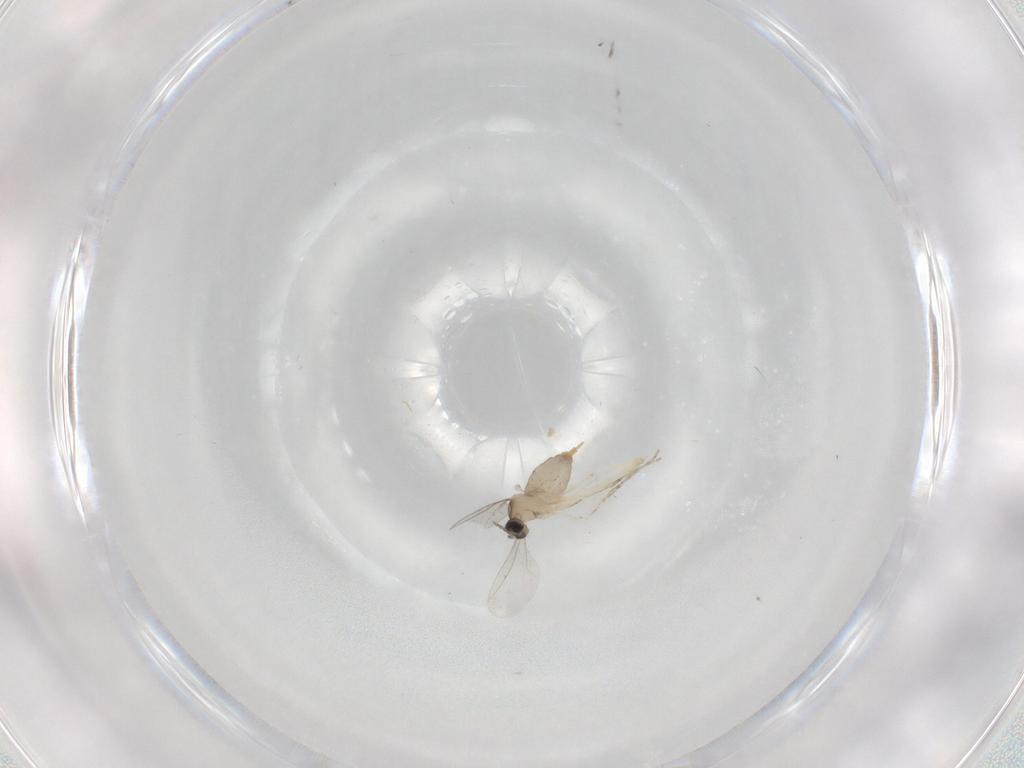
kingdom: Animalia
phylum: Arthropoda
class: Insecta
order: Diptera
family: Cecidomyiidae
